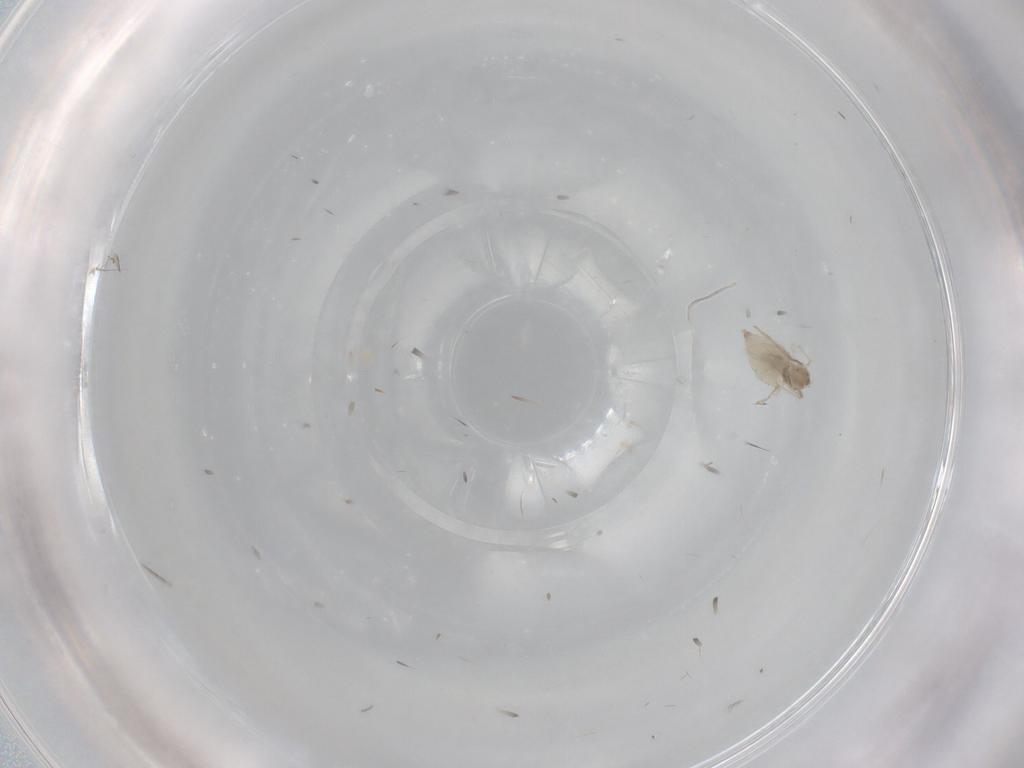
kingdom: Animalia
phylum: Arthropoda
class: Insecta
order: Diptera
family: Cecidomyiidae
